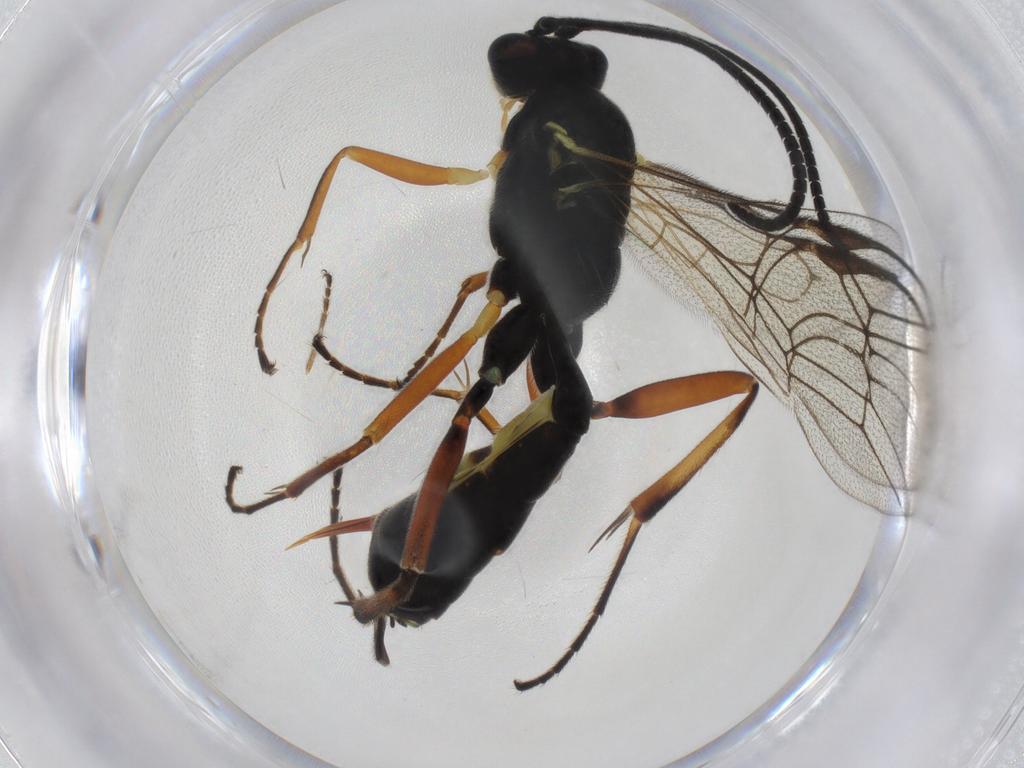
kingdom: Animalia
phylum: Arthropoda
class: Insecta
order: Hymenoptera
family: Ichneumonidae
